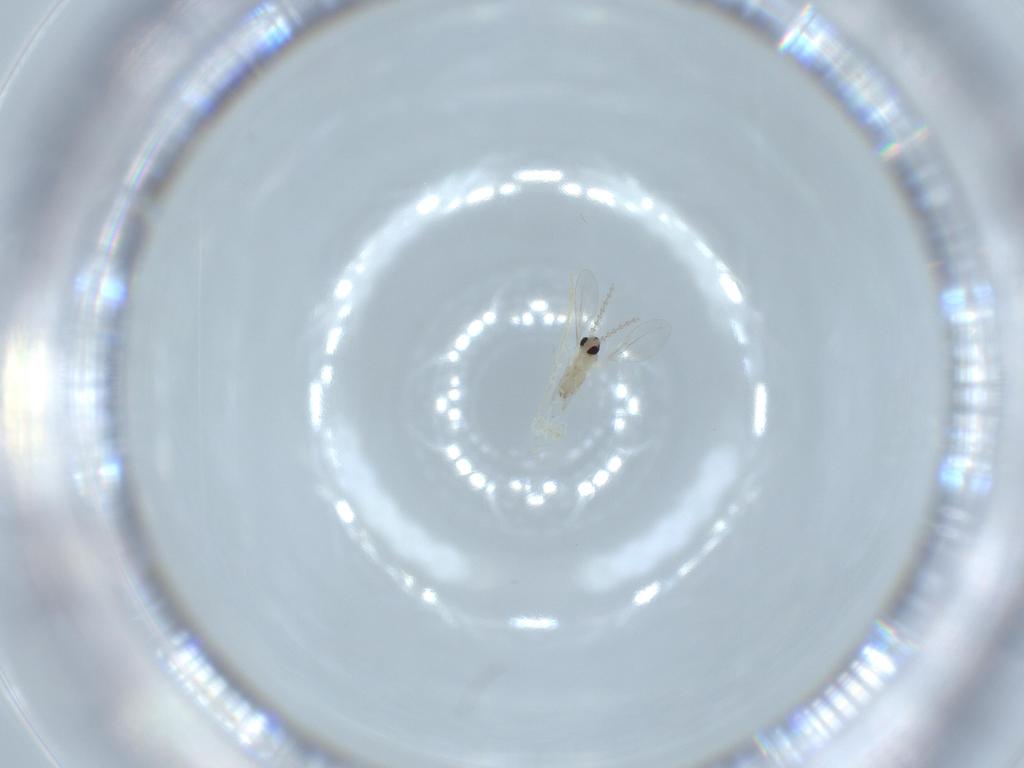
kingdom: Animalia
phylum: Arthropoda
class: Insecta
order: Diptera
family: Cecidomyiidae
